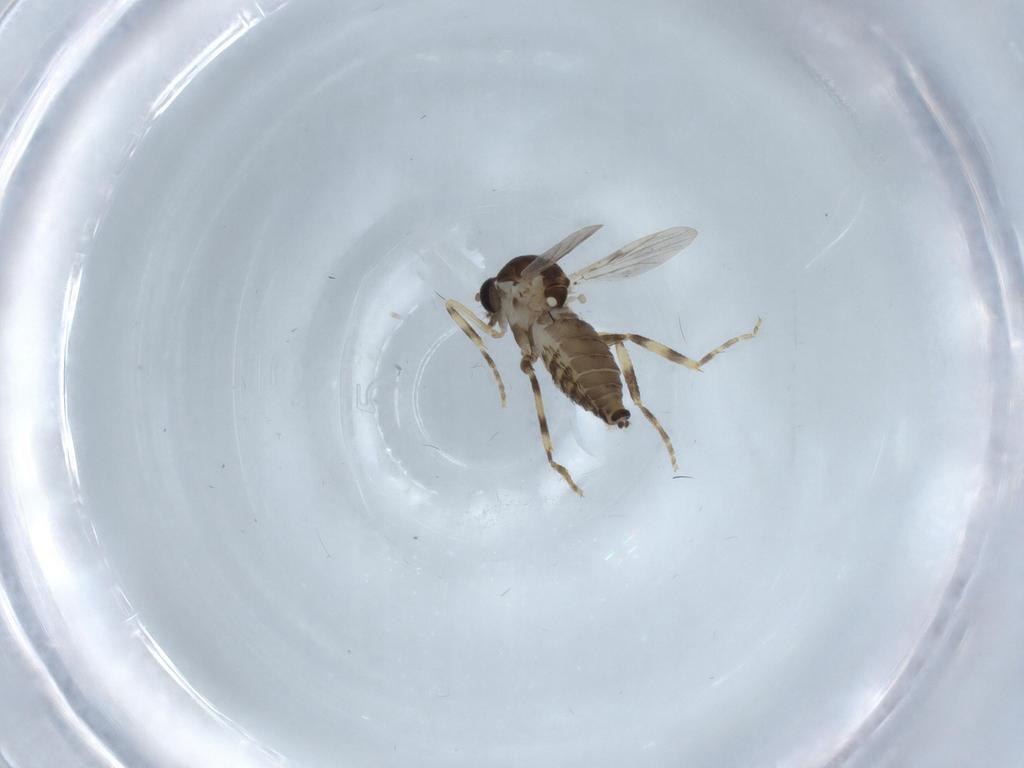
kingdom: Animalia
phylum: Arthropoda
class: Insecta
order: Diptera
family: Ceratopogonidae
